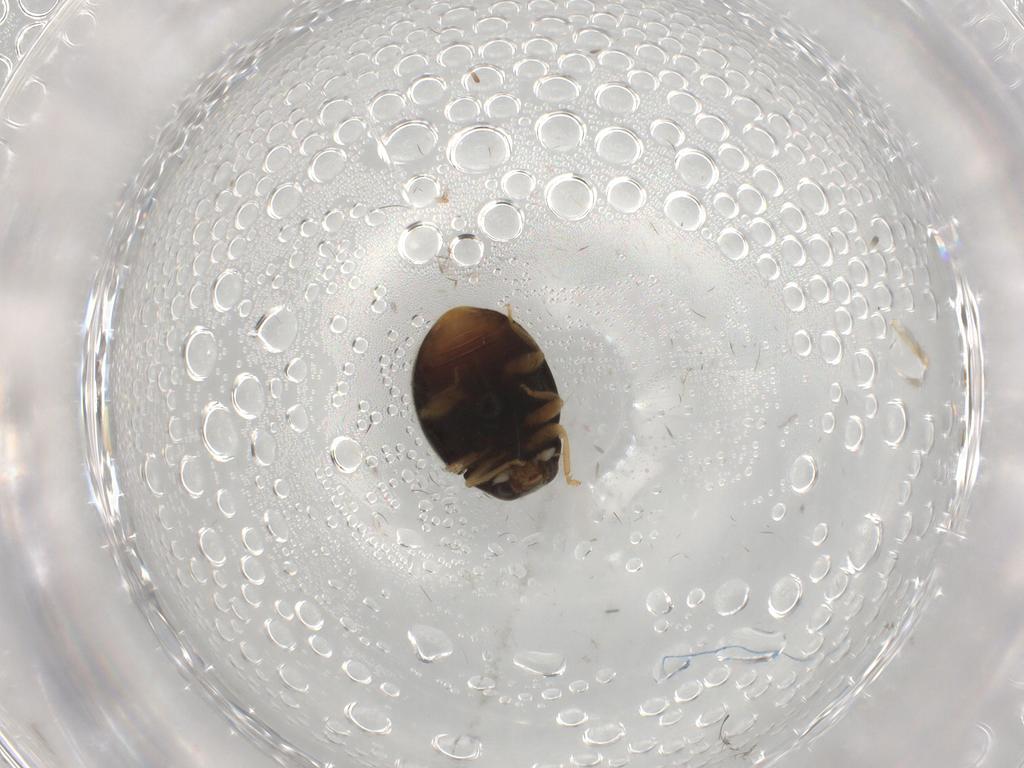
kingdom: Animalia
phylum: Arthropoda
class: Insecta
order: Coleoptera
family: Coccinellidae
